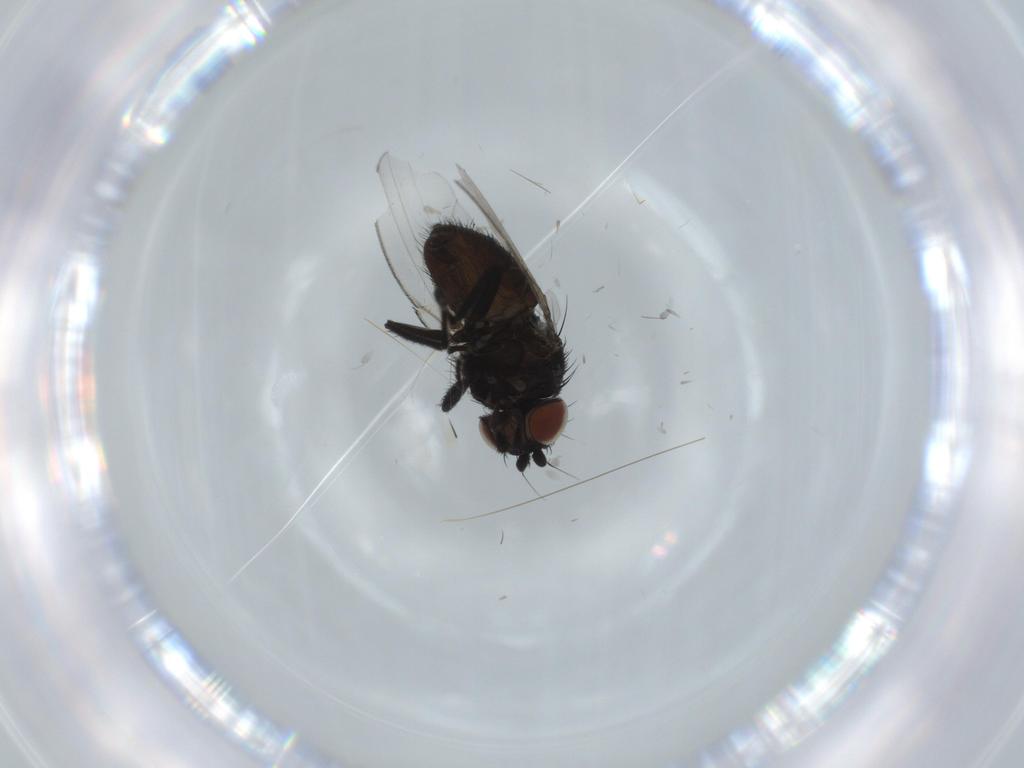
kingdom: Animalia
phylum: Arthropoda
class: Insecta
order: Diptera
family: Milichiidae
